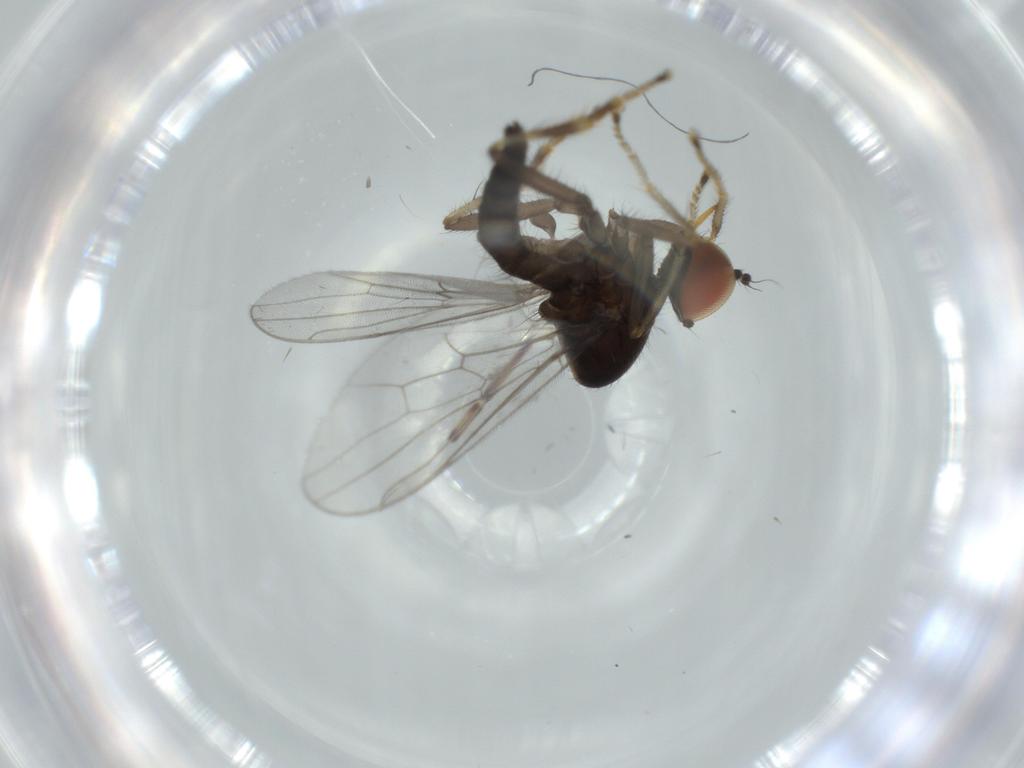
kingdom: Animalia
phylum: Arthropoda
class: Insecta
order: Diptera
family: Hybotidae
